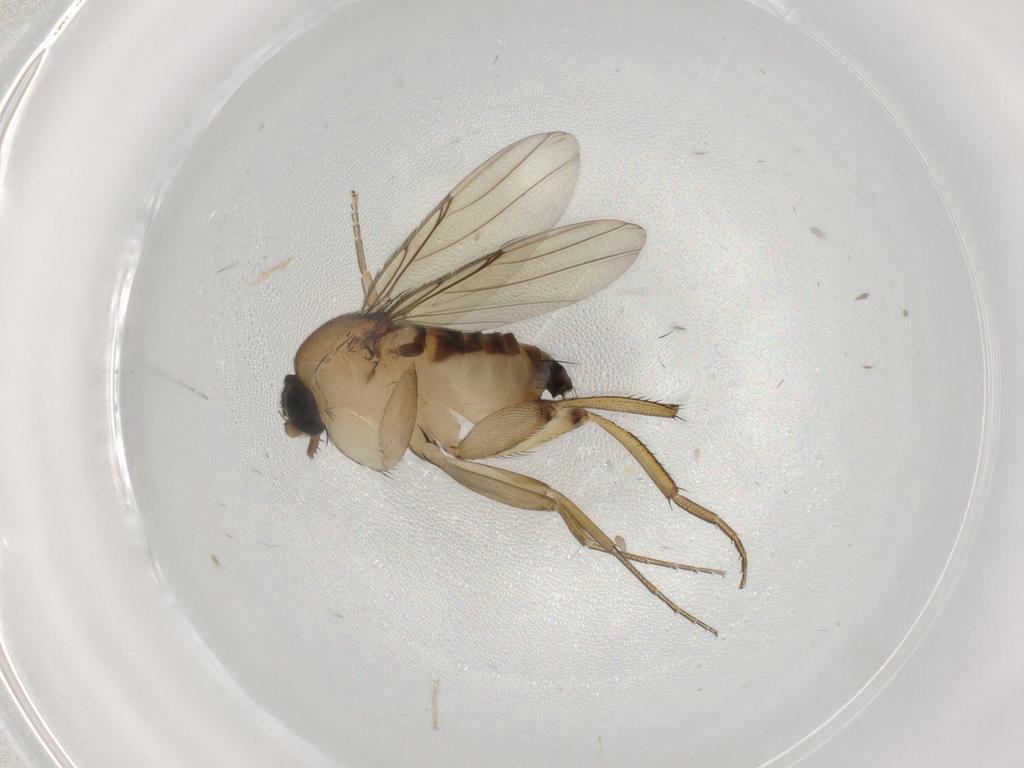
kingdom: Animalia
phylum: Arthropoda
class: Insecta
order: Diptera
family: Phoridae
